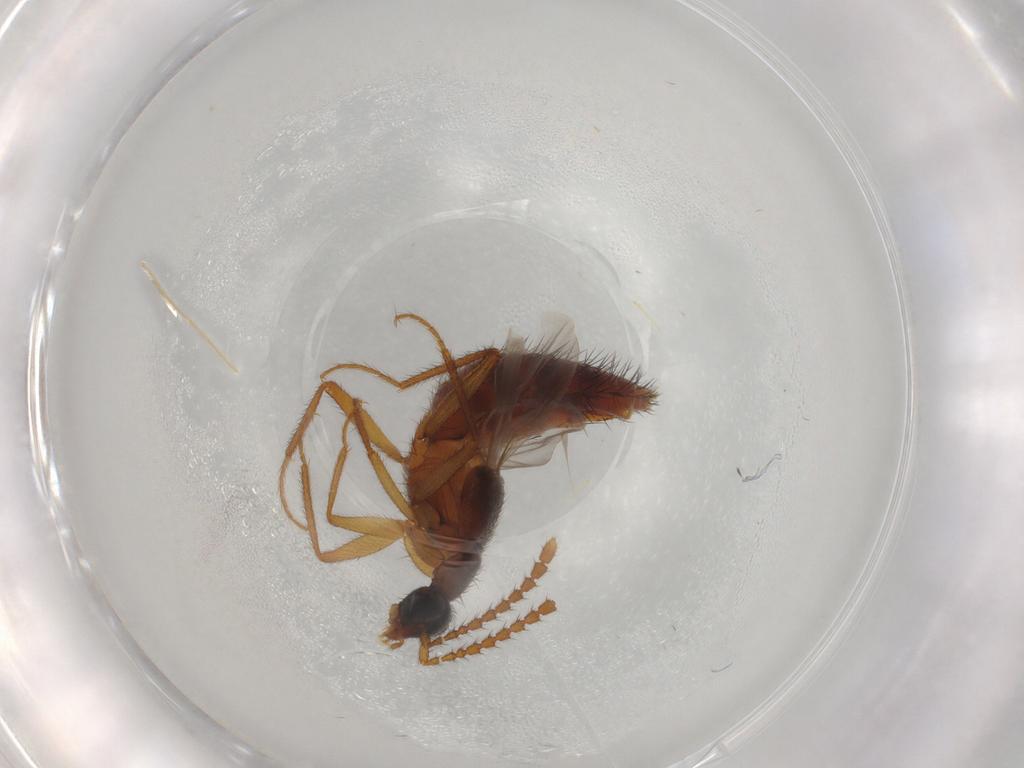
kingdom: Animalia
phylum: Arthropoda
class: Insecta
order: Coleoptera
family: Staphylinidae
